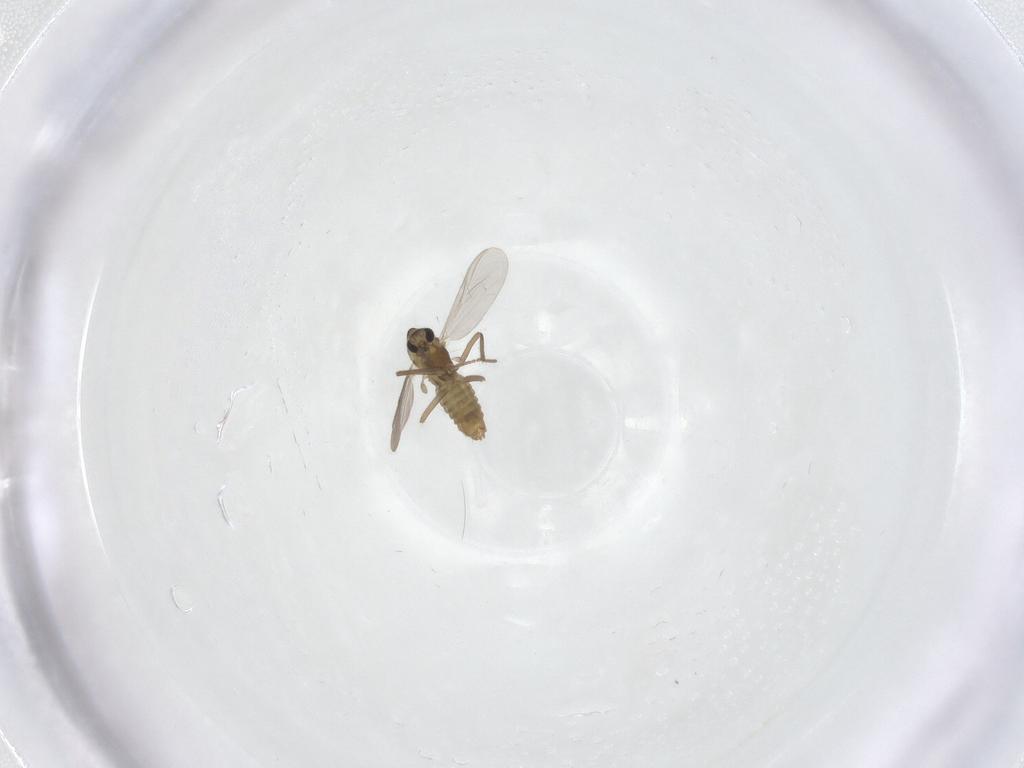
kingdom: Animalia
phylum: Arthropoda
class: Insecta
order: Diptera
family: Chironomidae
